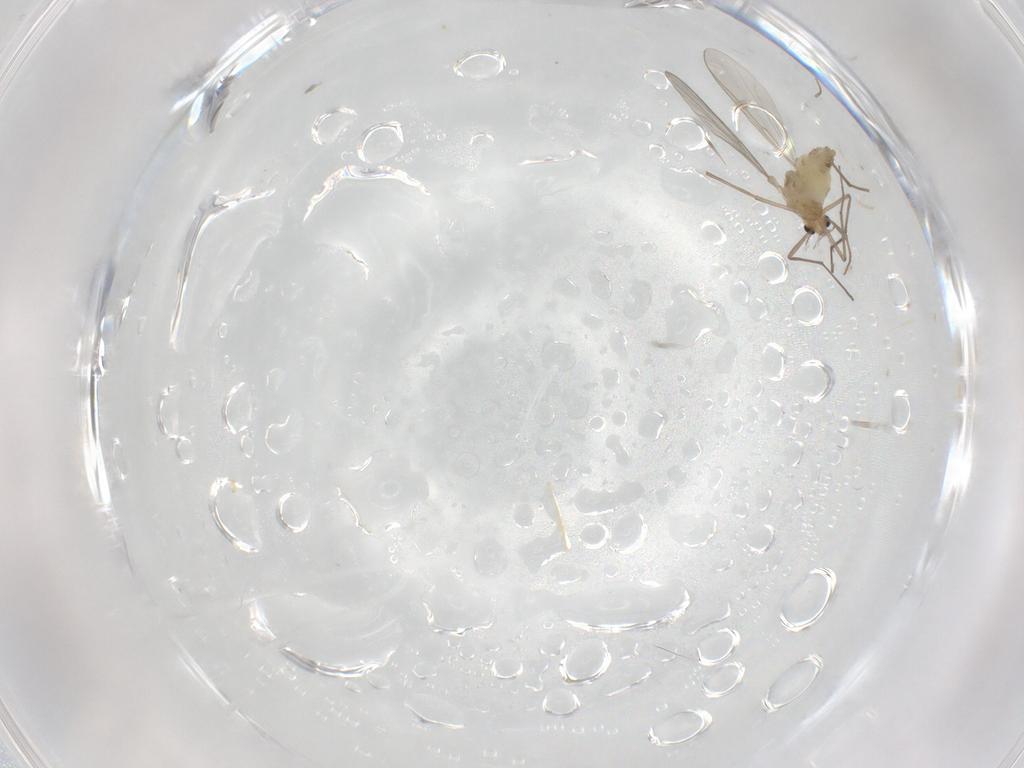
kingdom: Animalia
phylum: Arthropoda
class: Insecta
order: Diptera
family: Chironomidae
